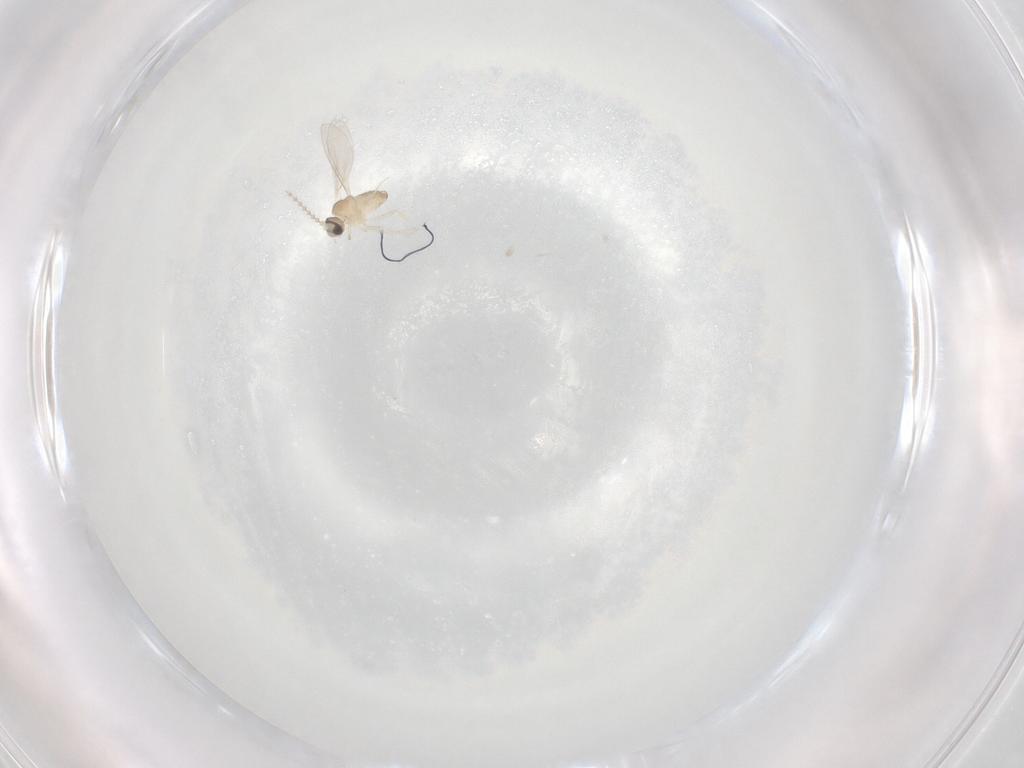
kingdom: Animalia
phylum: Arthropoda
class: Insecta
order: Diptera
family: Cecidomyiidae
